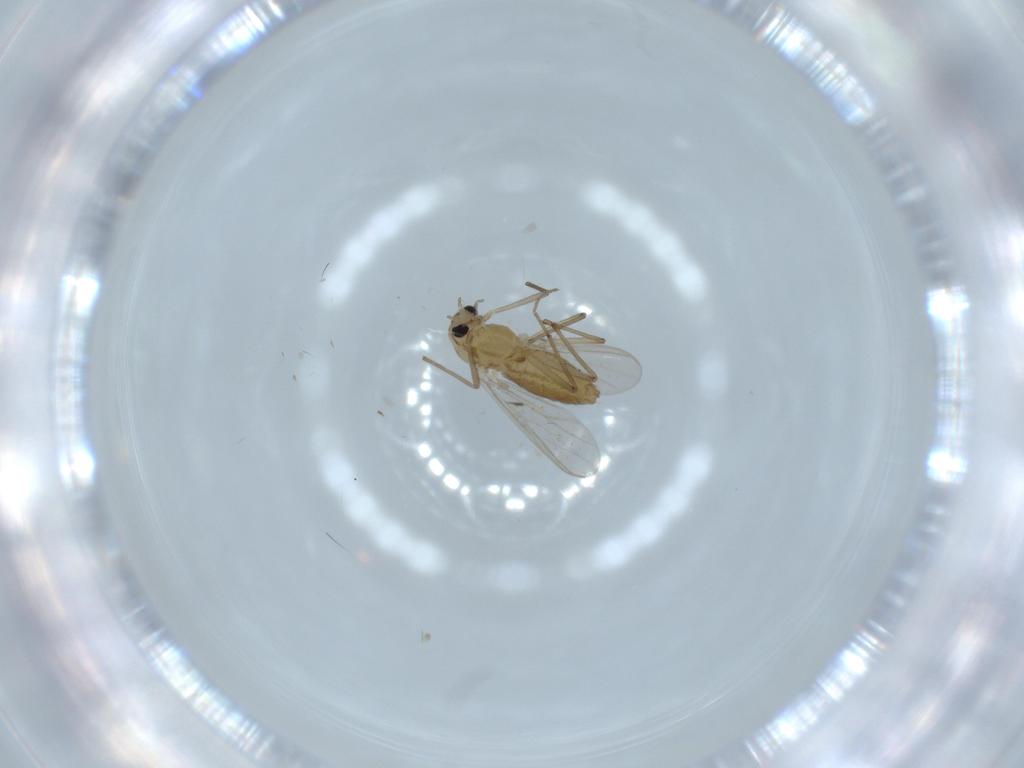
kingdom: Animalia
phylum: Arthropoda
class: Insecta
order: Diptera
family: Chironomidae
